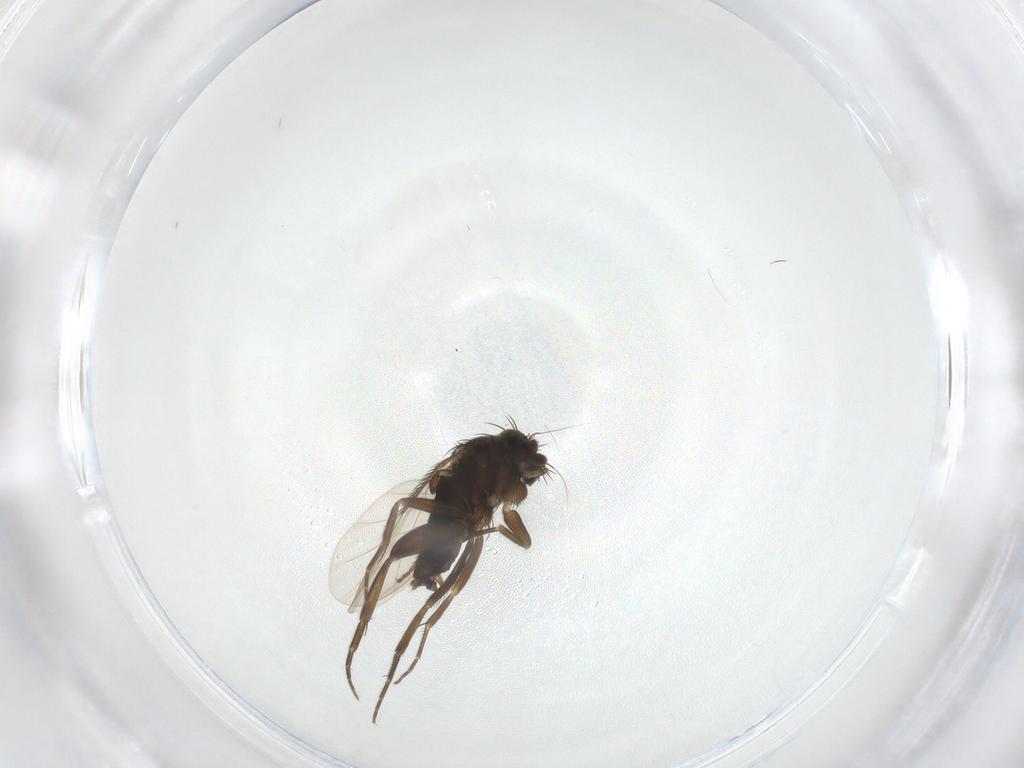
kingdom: Animalia
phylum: Arthropoda
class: Insecta
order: Diptera
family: Phoridae
